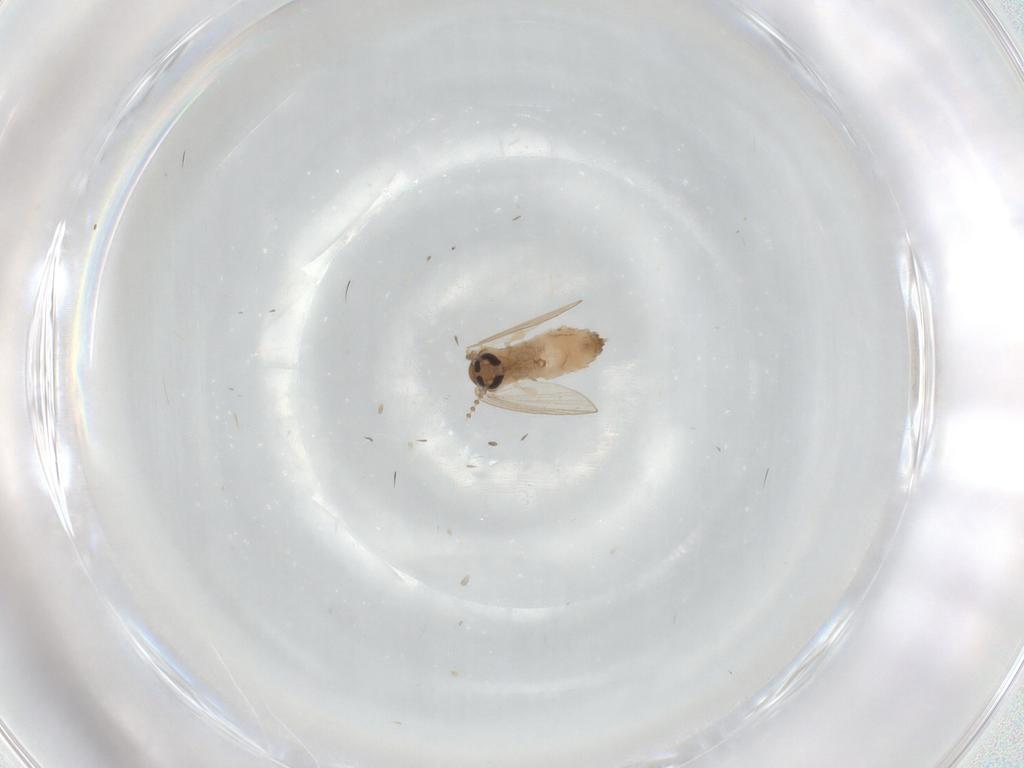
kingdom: Animalia
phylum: Arthropoda
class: Insecta
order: Diptera
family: Psychodidae
